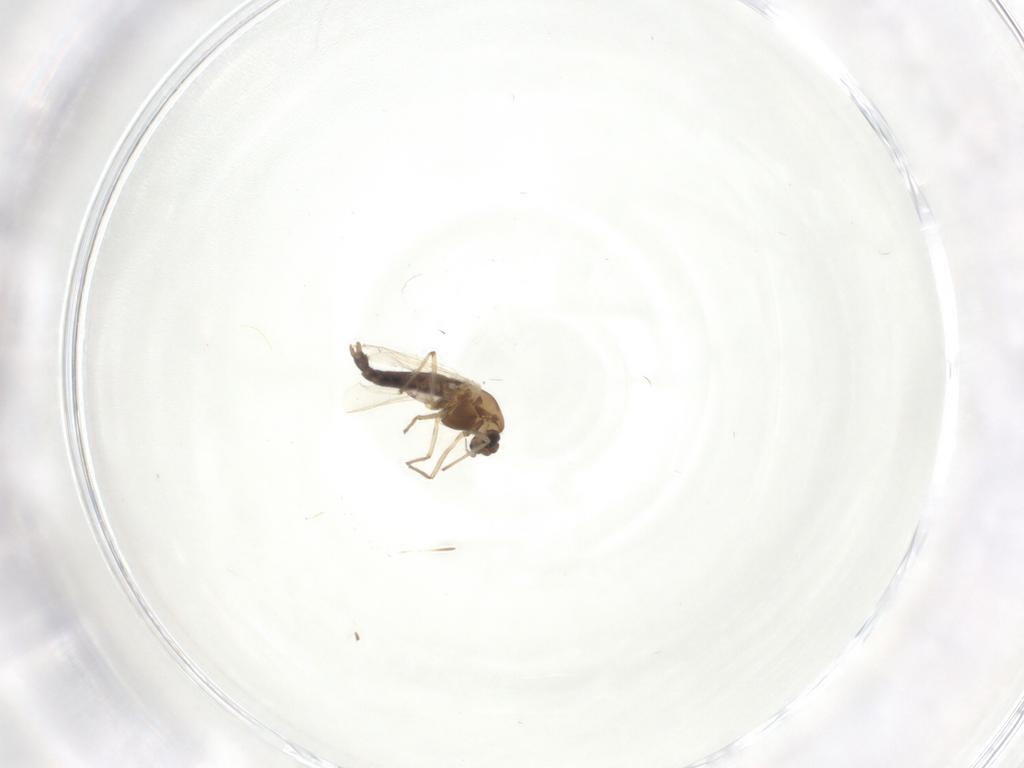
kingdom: Animalia
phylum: Arthropoda
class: Insecta
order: Diptera
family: Chironomidae
